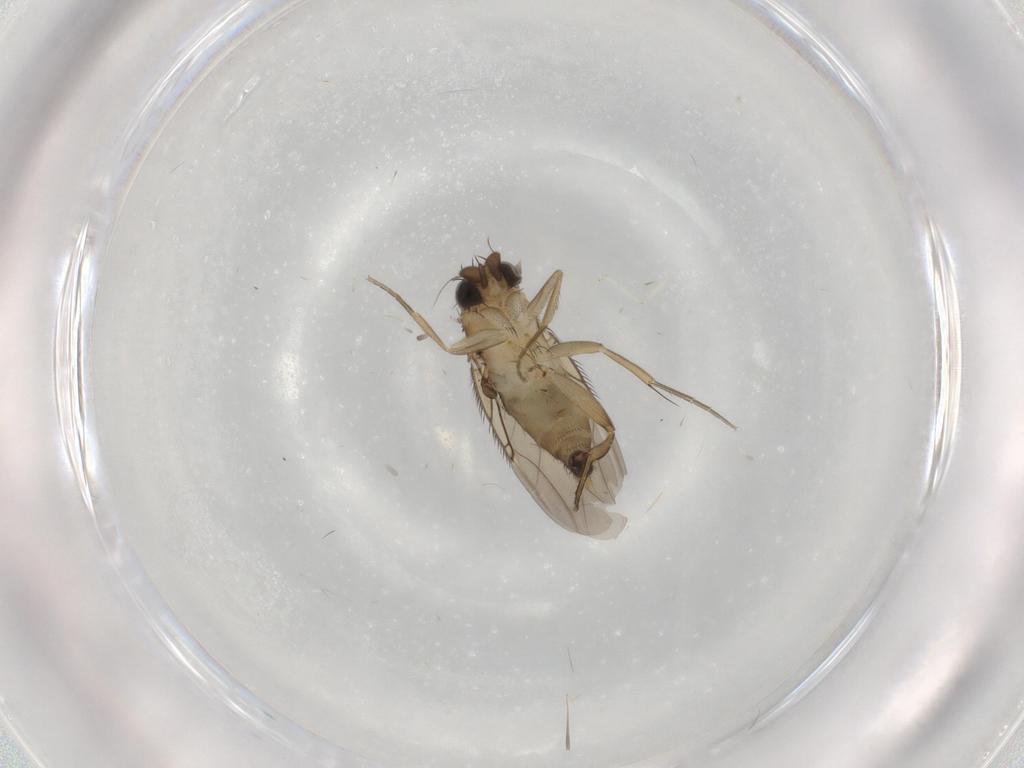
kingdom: Animalia
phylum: Arthropoda
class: Insecta
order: Diptera
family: Phoridae
